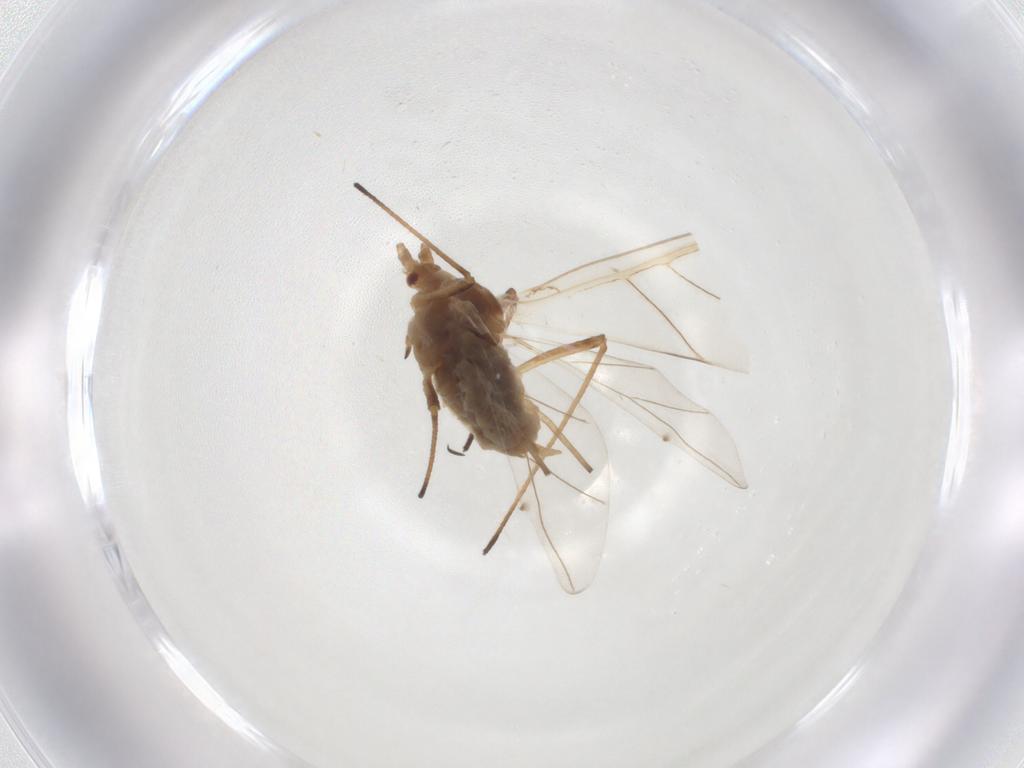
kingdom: Animalia
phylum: Arthropoda
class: Insecta
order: Hemiptera
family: Aphididae
